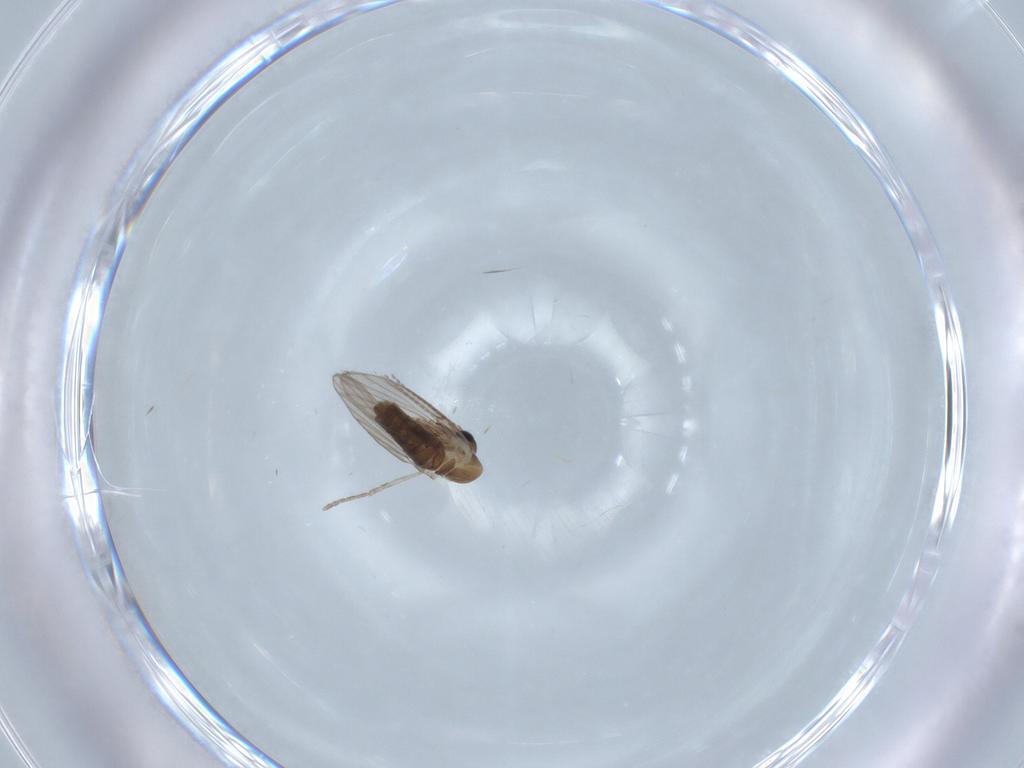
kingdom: Animalia
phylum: Arthropoda
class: Insecta
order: Diptera
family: Psychodidae
